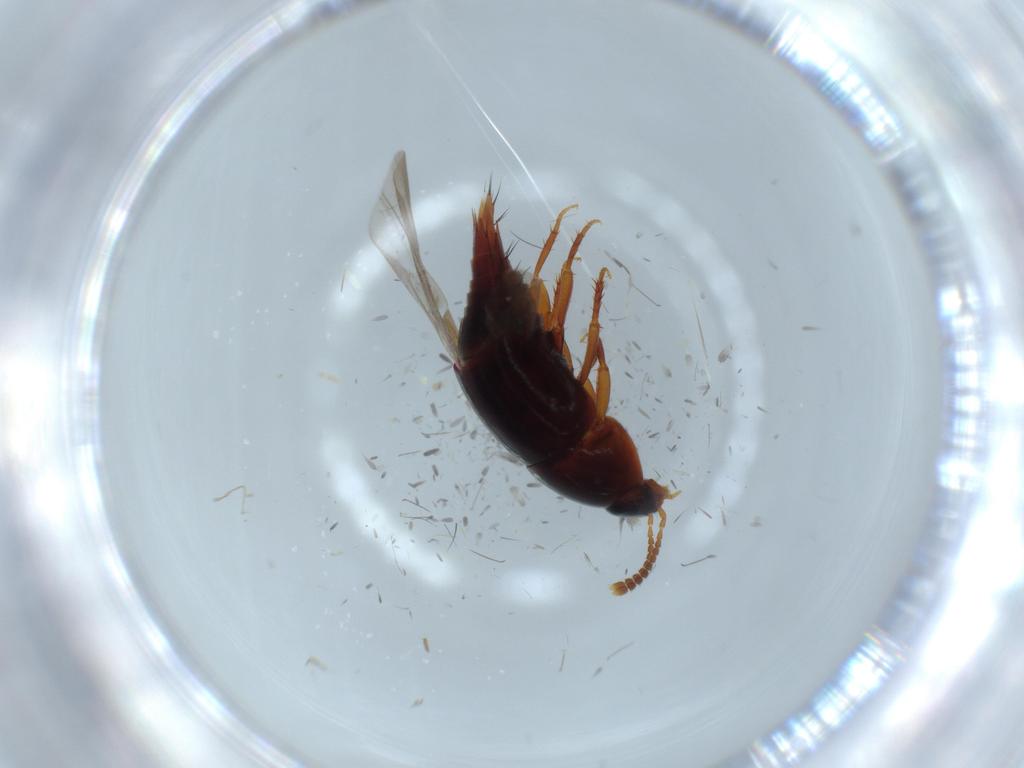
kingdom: Animalia
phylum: Arthropoda
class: Insecta
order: Coleoptera
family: Staphylinidae
